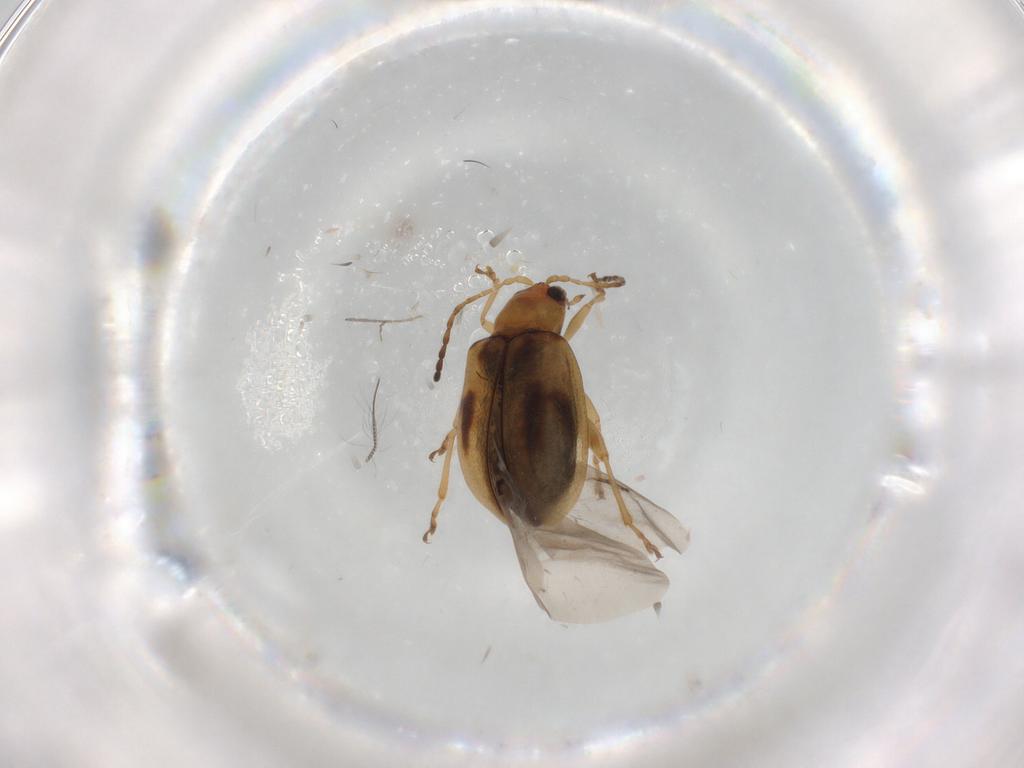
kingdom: Animalia
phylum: Arthropoda
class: Insecta
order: Coleoptera
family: Chrysomelidae
